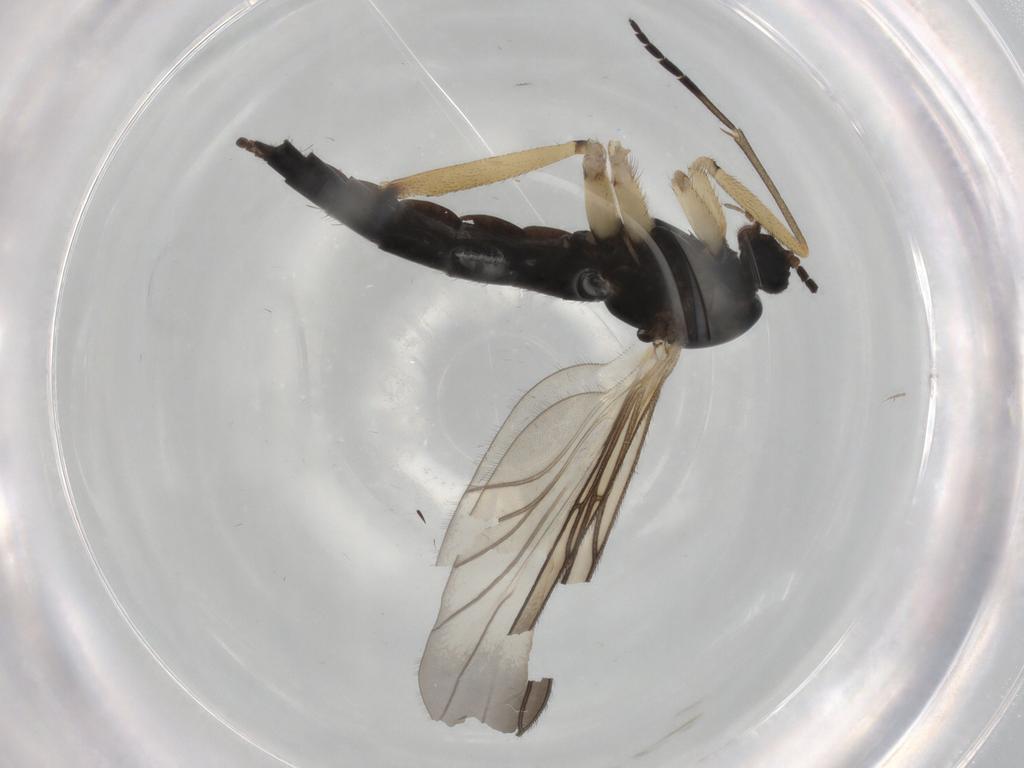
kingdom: Animalia
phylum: Arthropoda
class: Insecta
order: Diptera
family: Sciaridae
